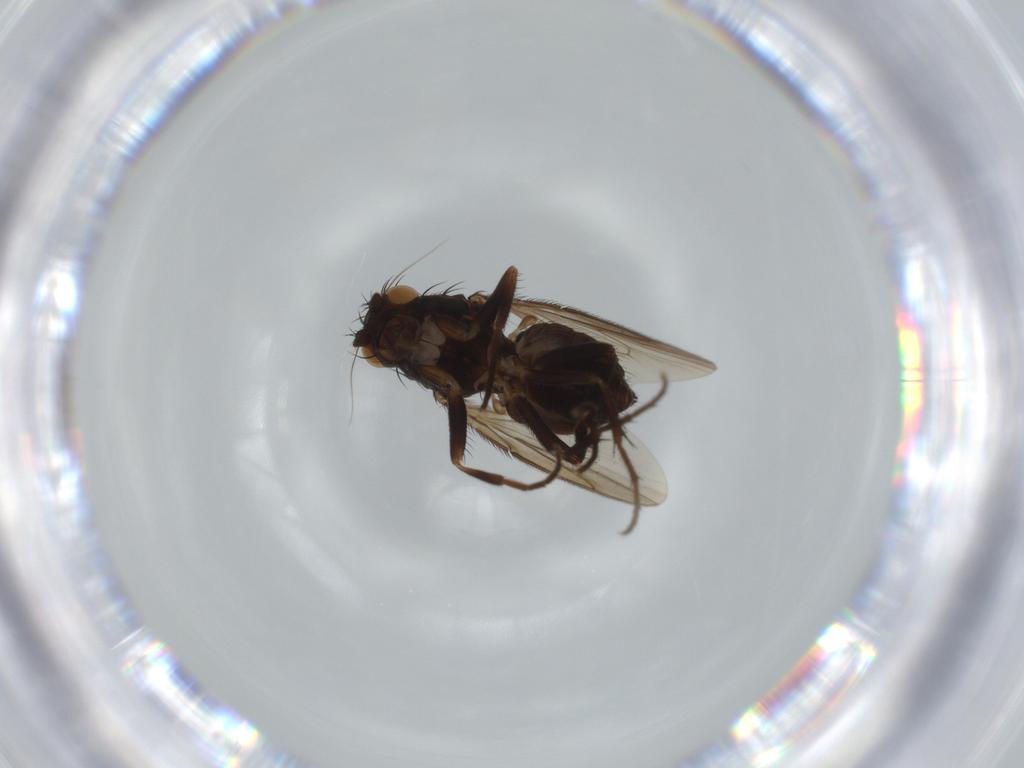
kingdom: Animalia
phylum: Arthropoda
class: Insecta
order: Diptera
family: Sphaeroceridae
